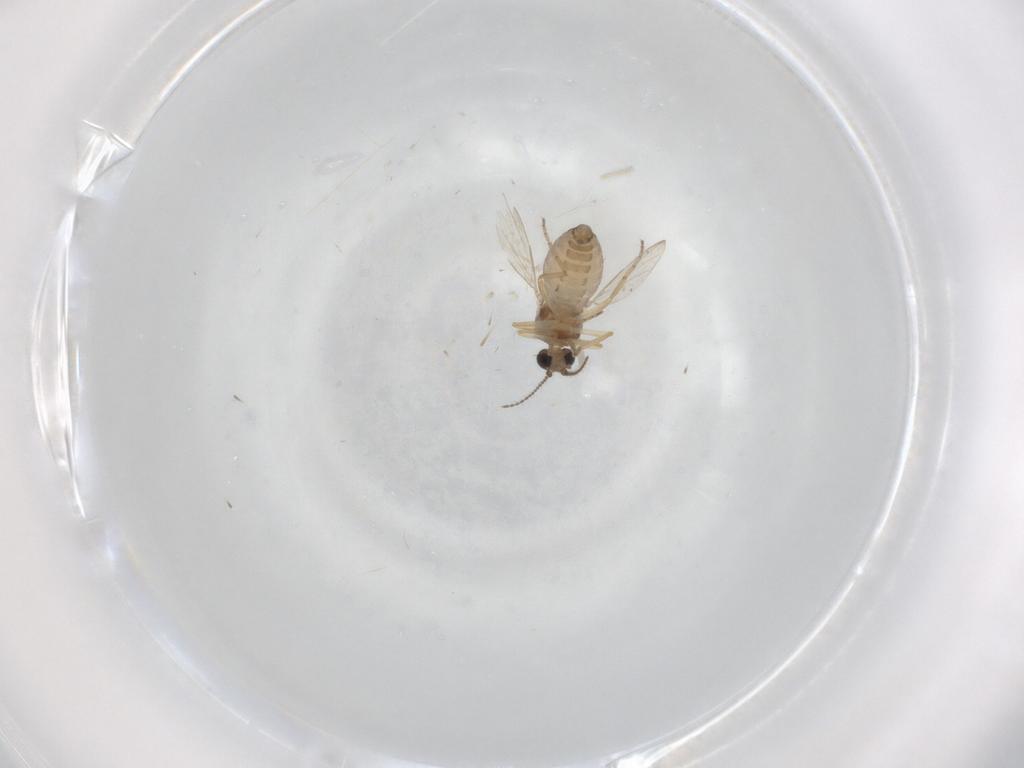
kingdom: Animalia
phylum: Arthropoda
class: Insecta
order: Diptera
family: Ceratopogonidae
